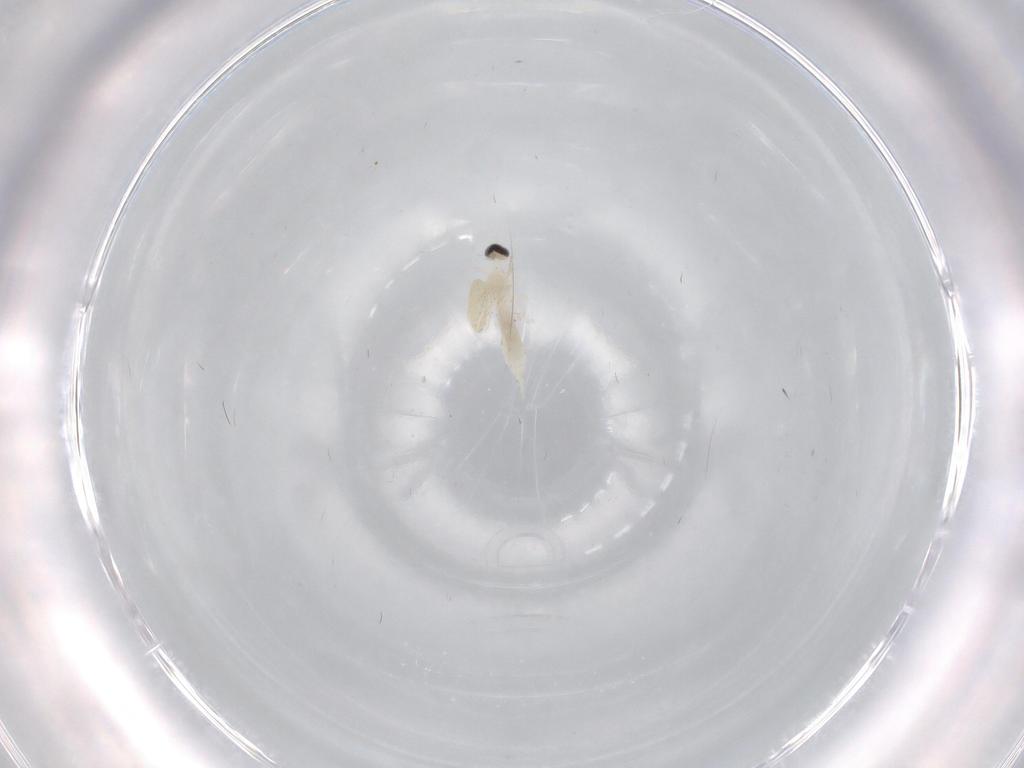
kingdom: Animalia
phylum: Arthropoda
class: Insecta
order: Diptera
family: Cecidomyiidae
